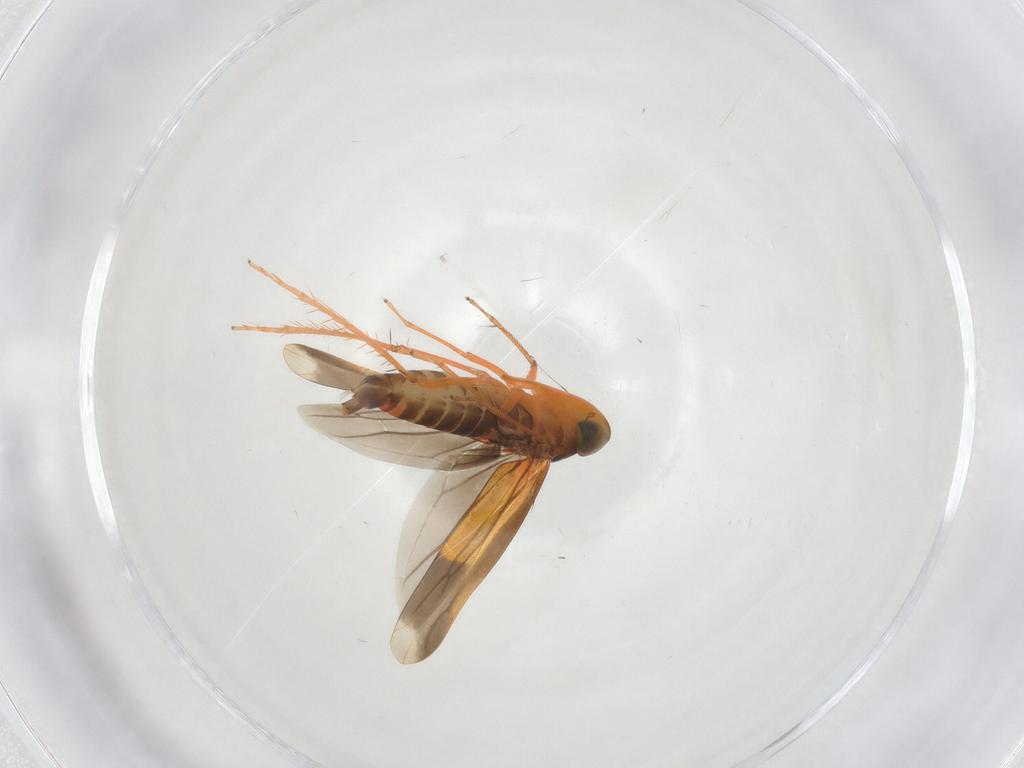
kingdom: Animalia
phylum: Arthropoda
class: Insecta
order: Hemiptera
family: Cicadellidae
